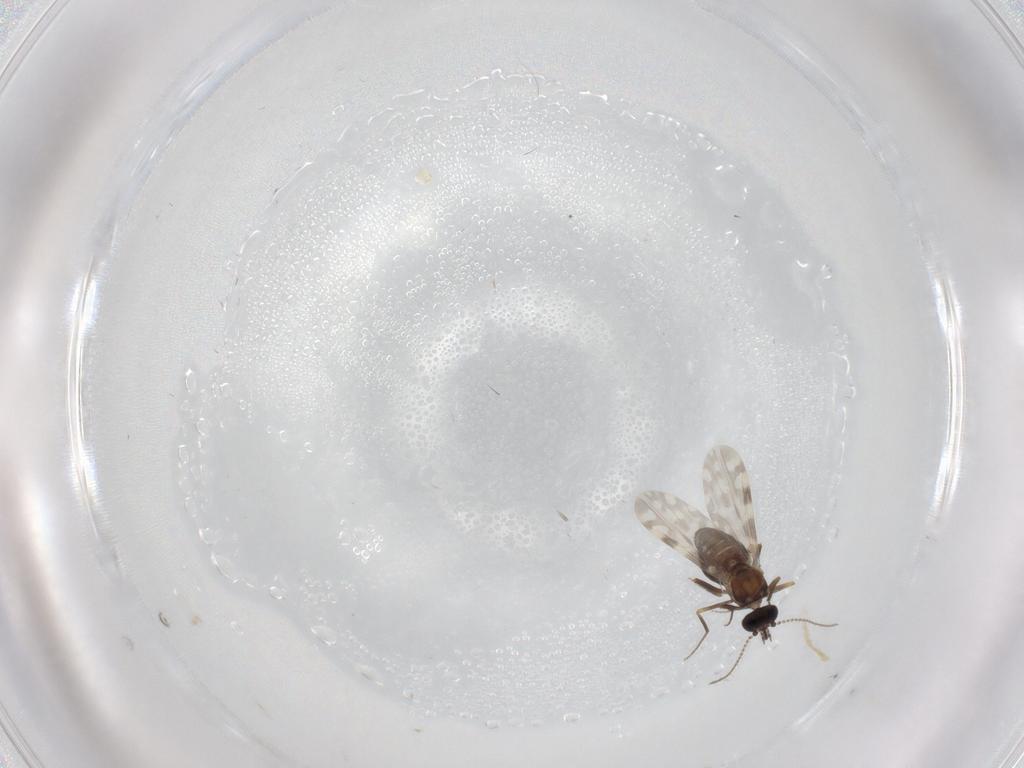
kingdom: Animalia
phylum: Arthropoda
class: Insecta
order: Diptera
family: Ceratopogonidae
